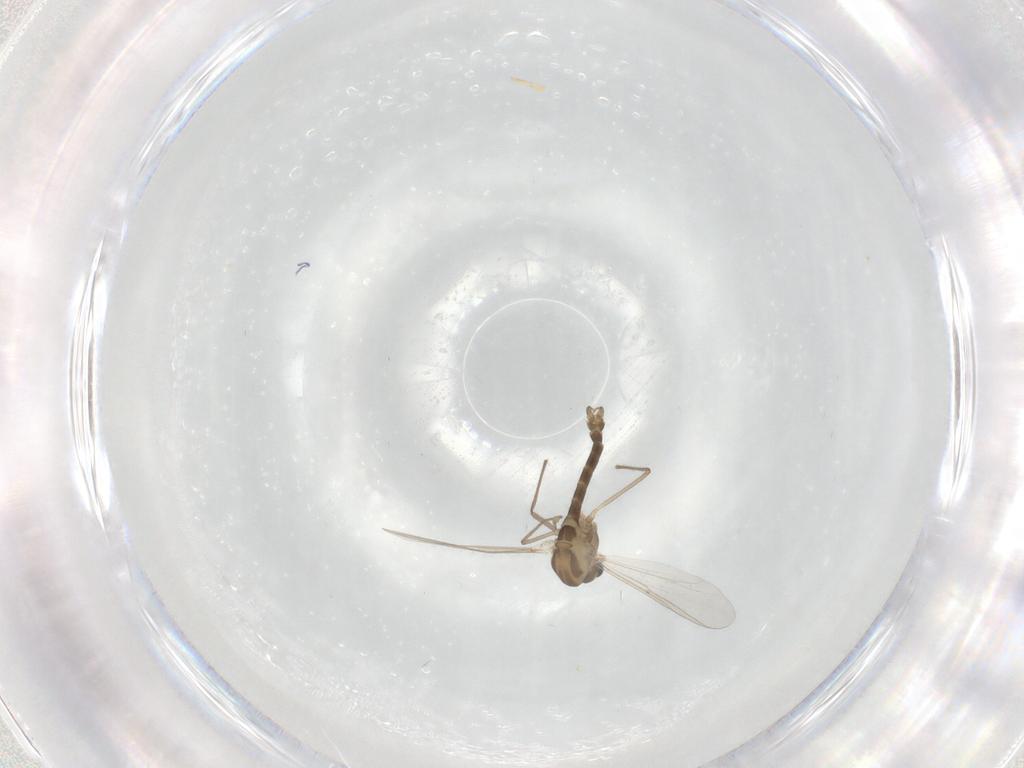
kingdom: Animalia
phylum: Arthropoda
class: Insecta
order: Diptera
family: Chironomidae
